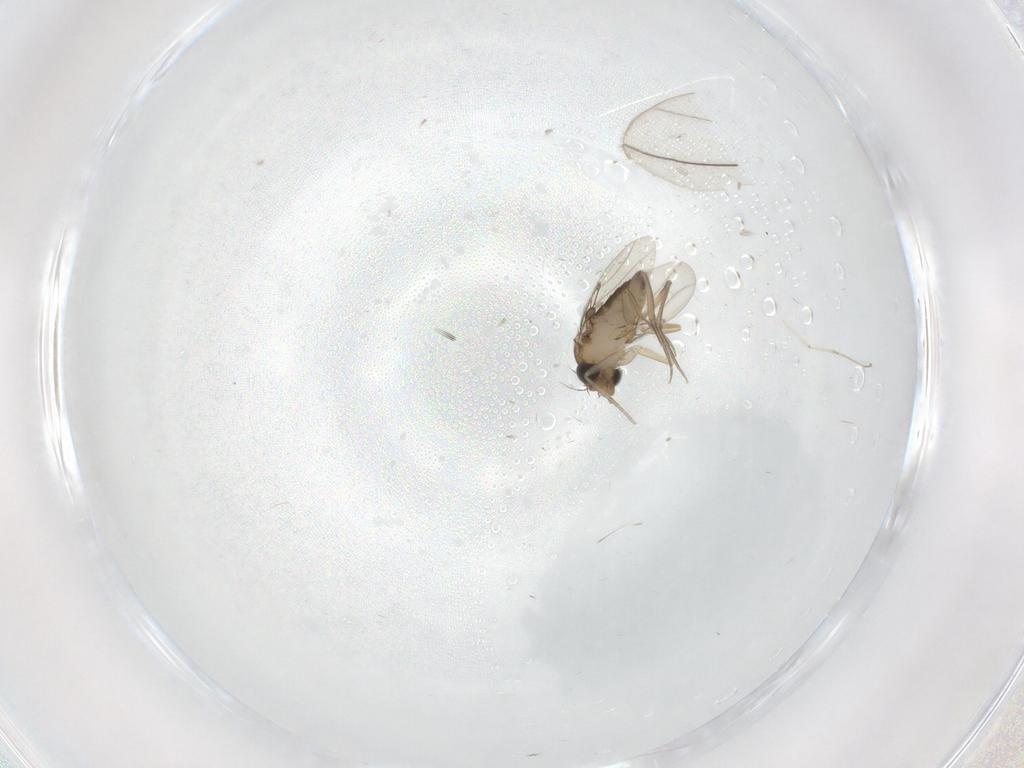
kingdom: Animalia
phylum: Arthropoda
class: Insecta
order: Diptera
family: Phoridae
